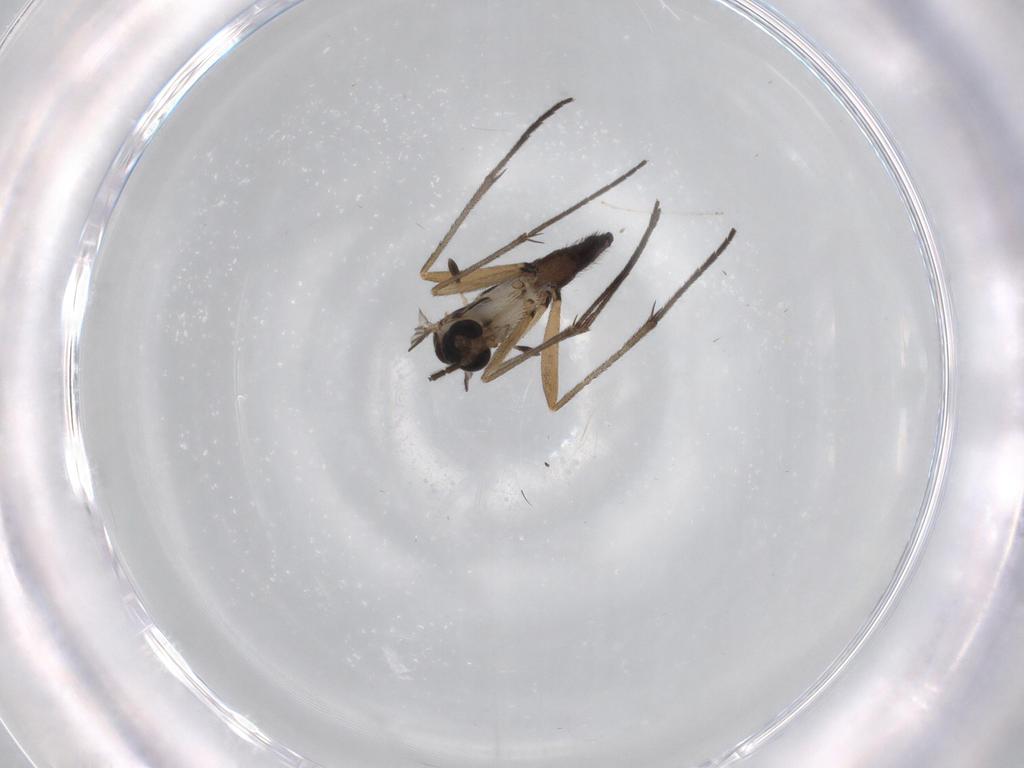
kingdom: Animalia
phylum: Arthropoda
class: Insecta
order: Diptera
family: Sciaridae
